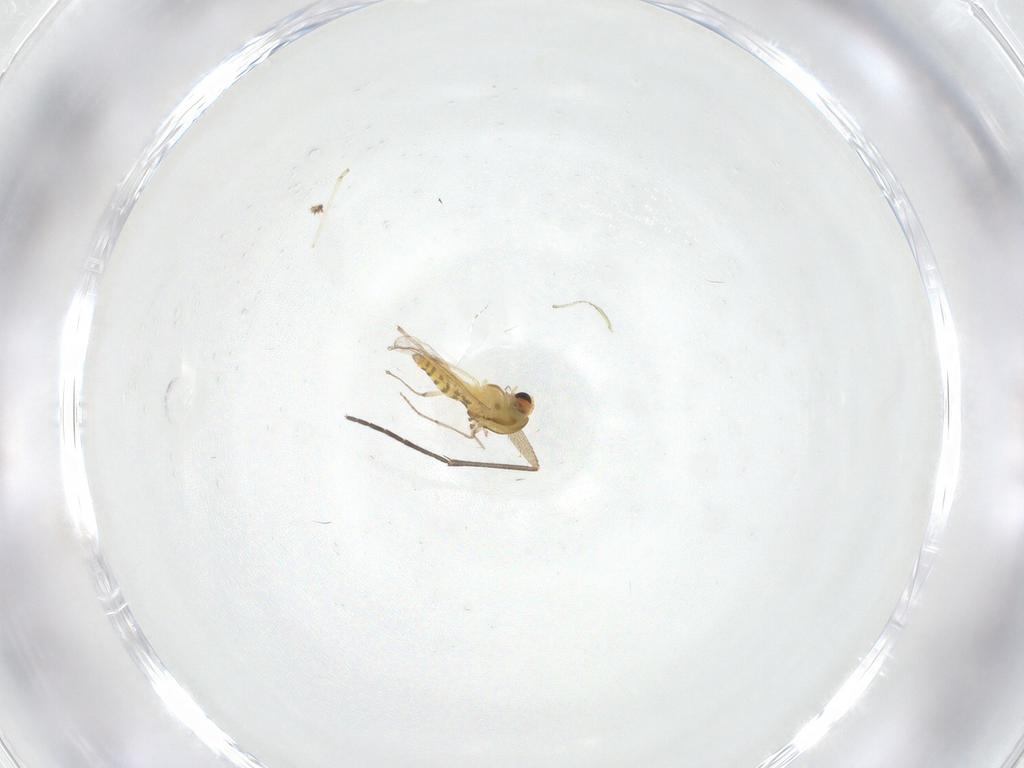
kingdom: Animalia
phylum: Arthropoda
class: Insecta
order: Diptera
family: Chironomidae
